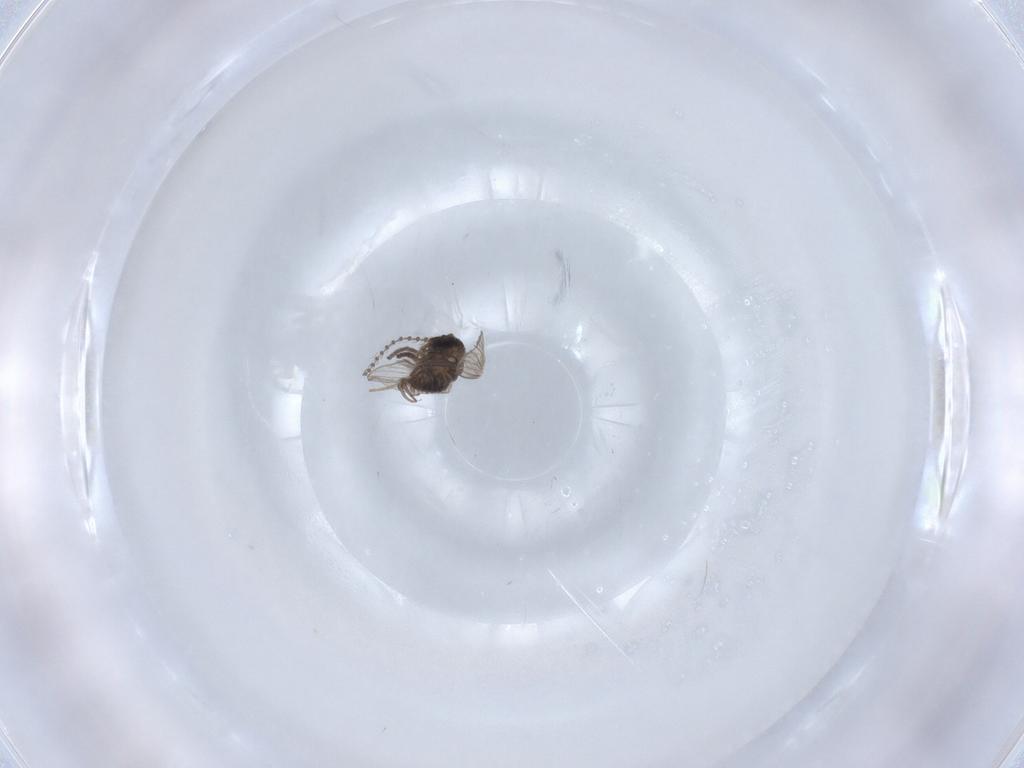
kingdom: Animalia
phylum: Arthropoda
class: Insecta
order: Diptera
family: Psychodidae
